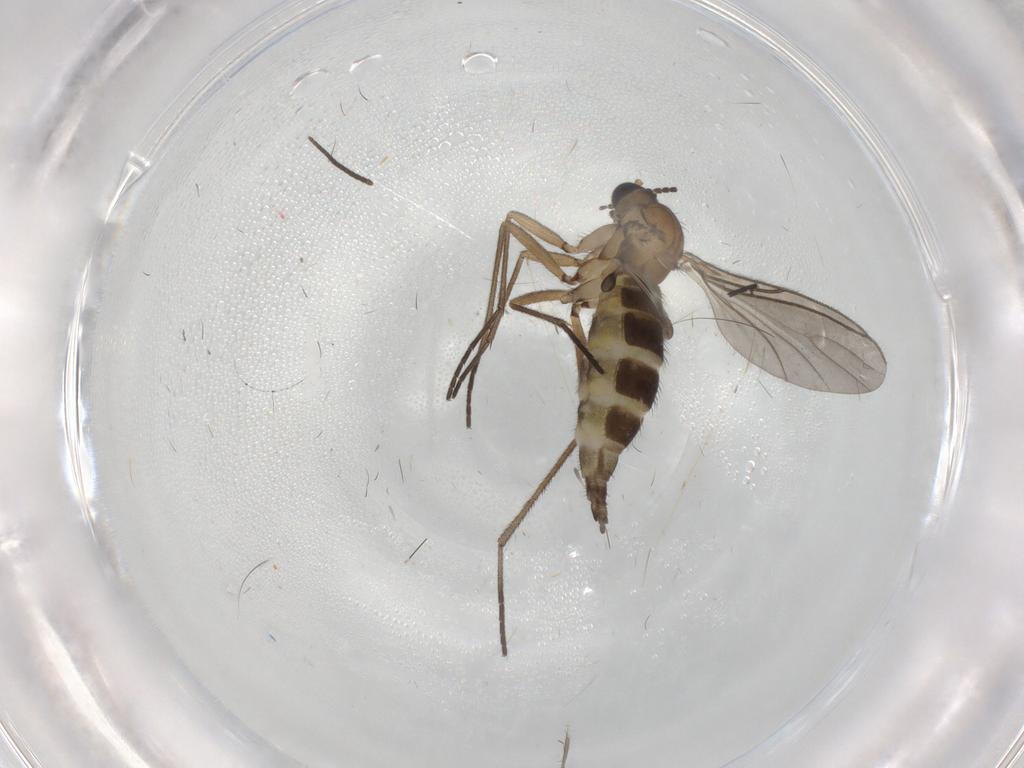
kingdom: Animalia
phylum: Arthropoda
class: Insecta
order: Diptera
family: Sciaridae
